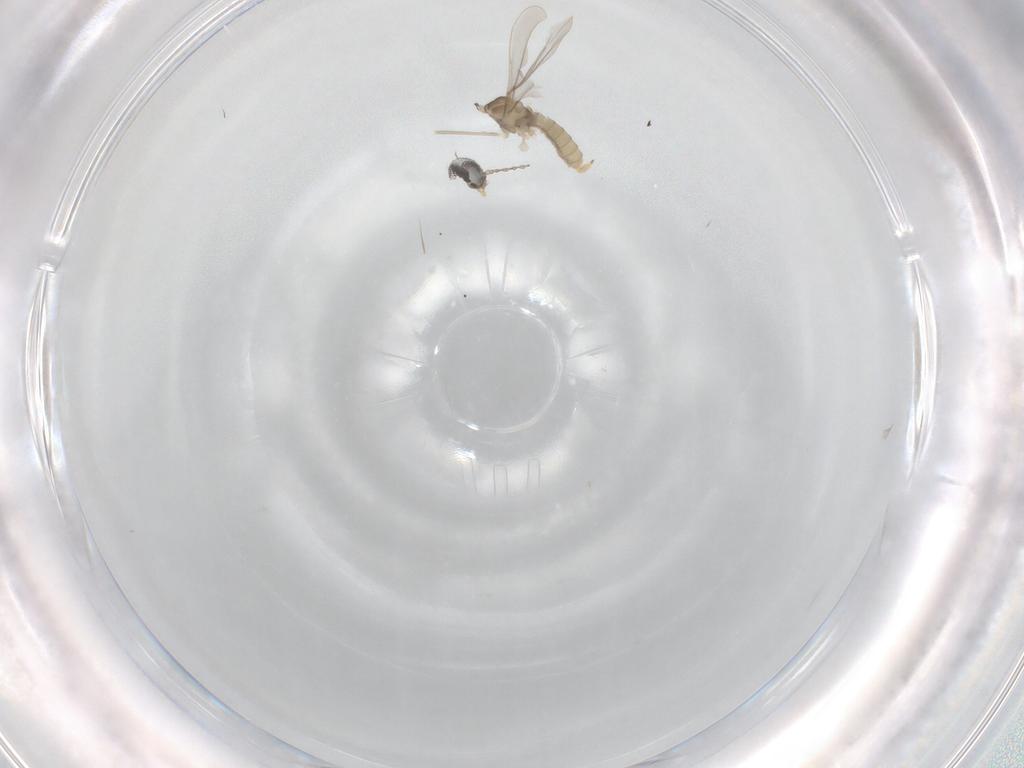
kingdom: Animalia
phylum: Arthropoda
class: Insecta
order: Diptera
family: Cecidomyiidae
